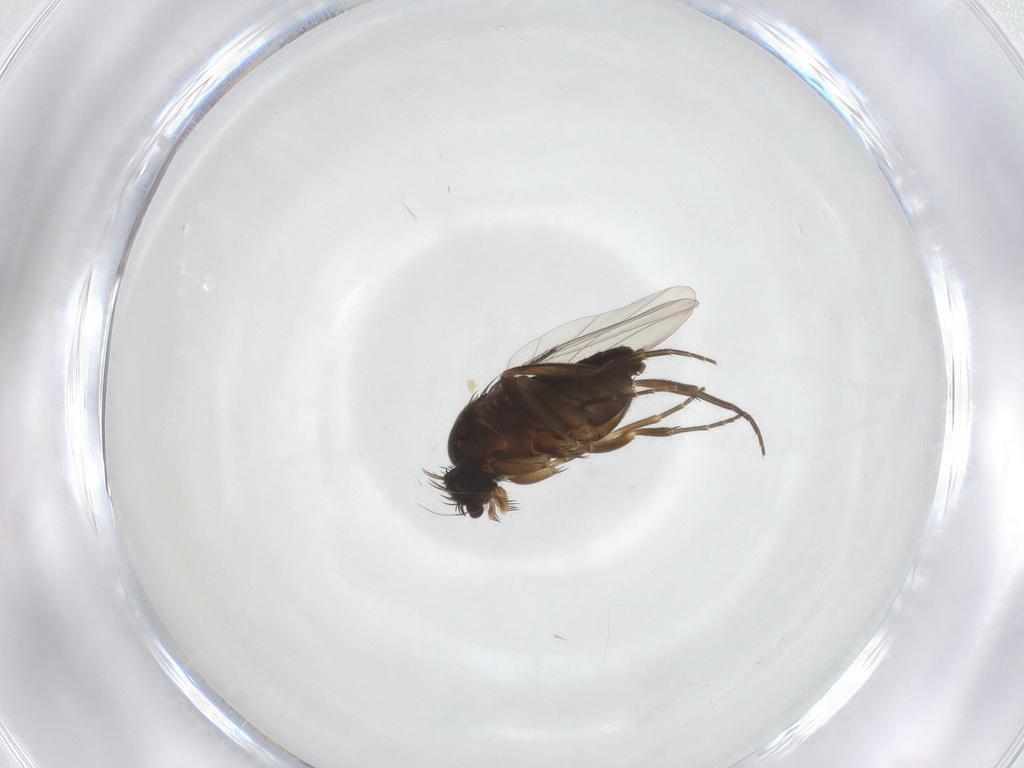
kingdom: Animalia
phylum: Arthropoda
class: Insecta
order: Diptera
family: Phoridae
